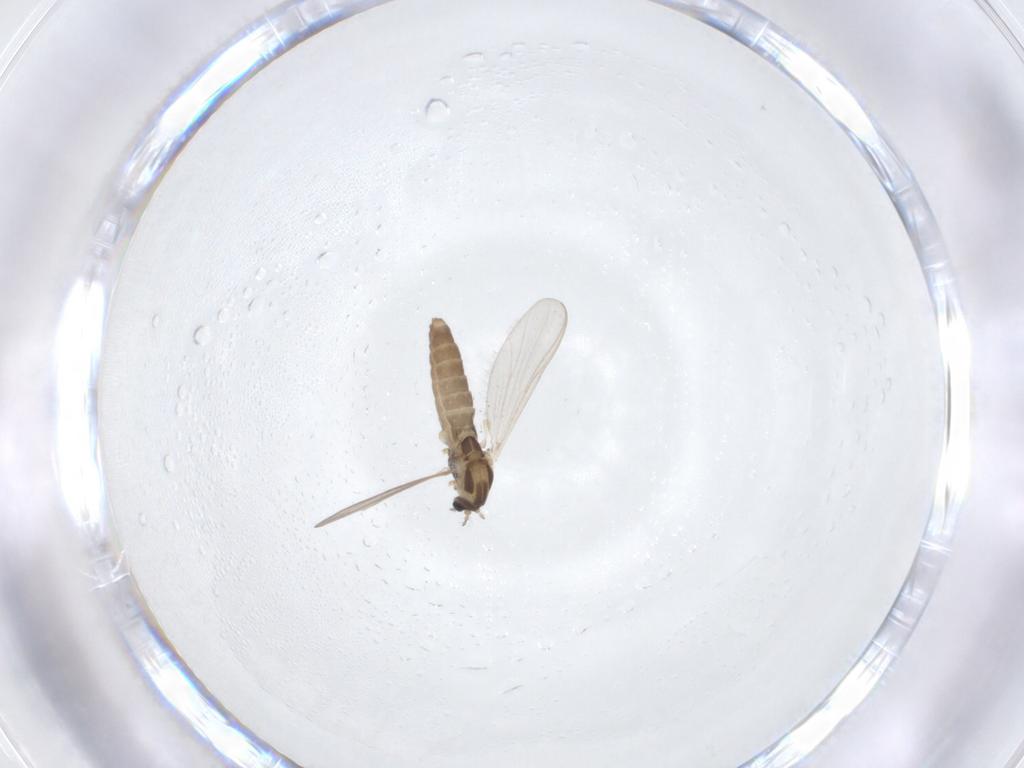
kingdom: Animalia
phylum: Arthropoda
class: Insecta
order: Diptera
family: Chironomidae
